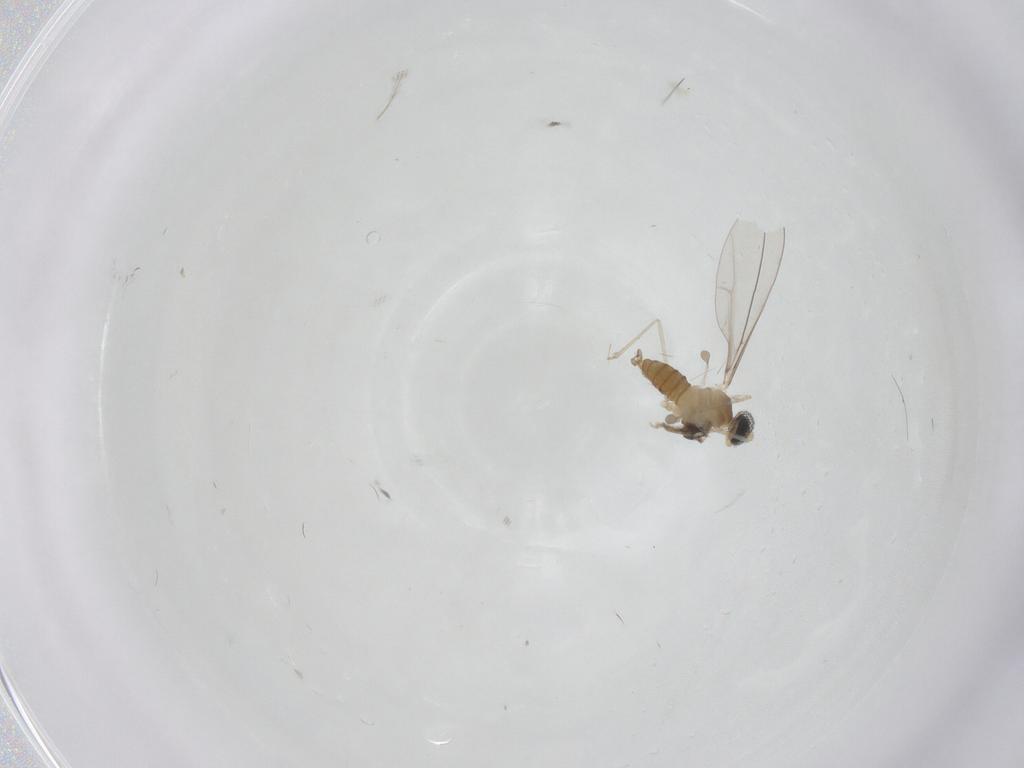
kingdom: Animalia
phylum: Arthropoda
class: Insecta
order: Diptera
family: Cecidomyiidae
